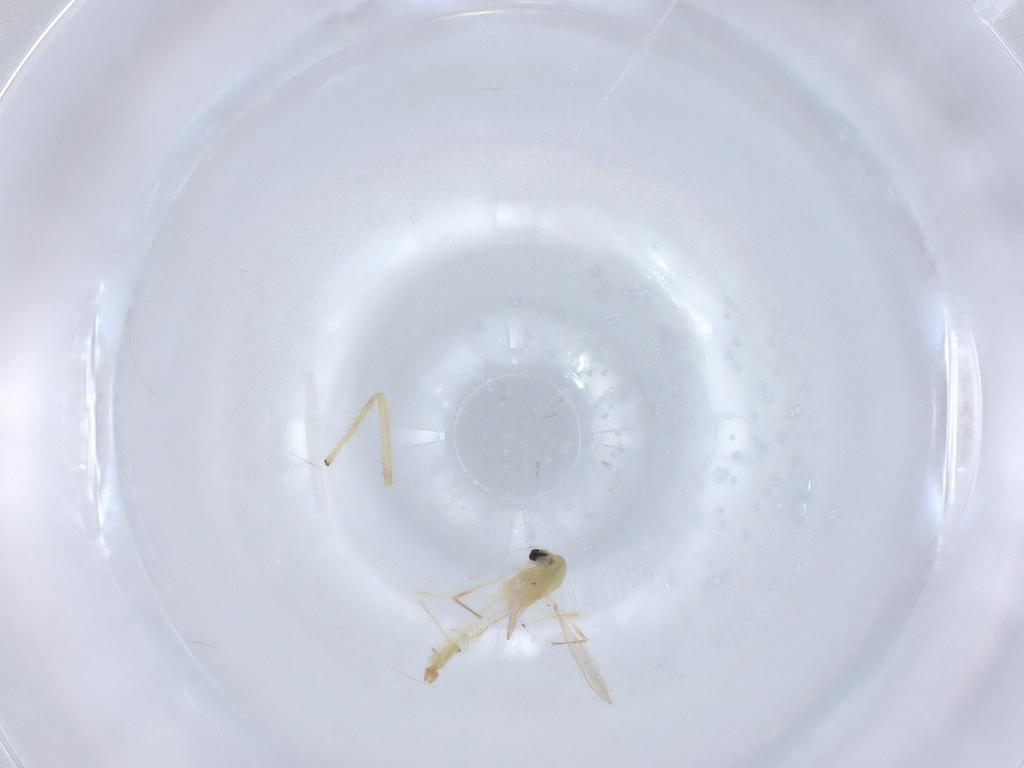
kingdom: Animalia
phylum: Arthropoda
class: Insecta
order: Diptera
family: Chironomidae
